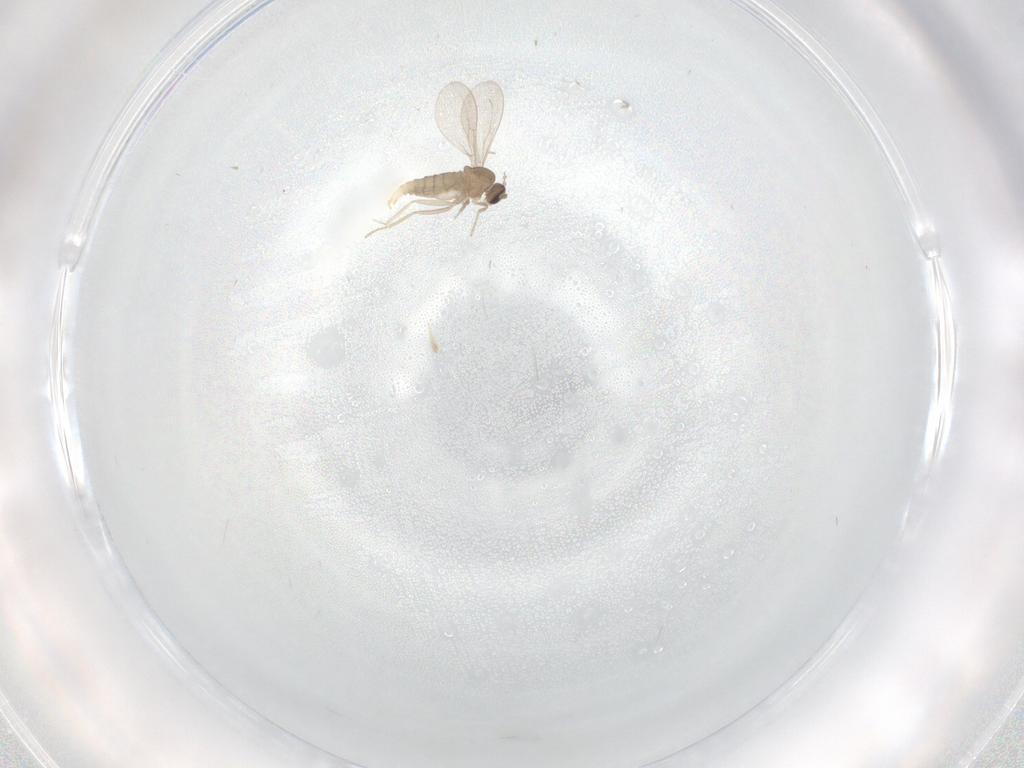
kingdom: Animalia
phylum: Arthropoda
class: Insecta
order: Diptera
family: Cecidomyiidae
